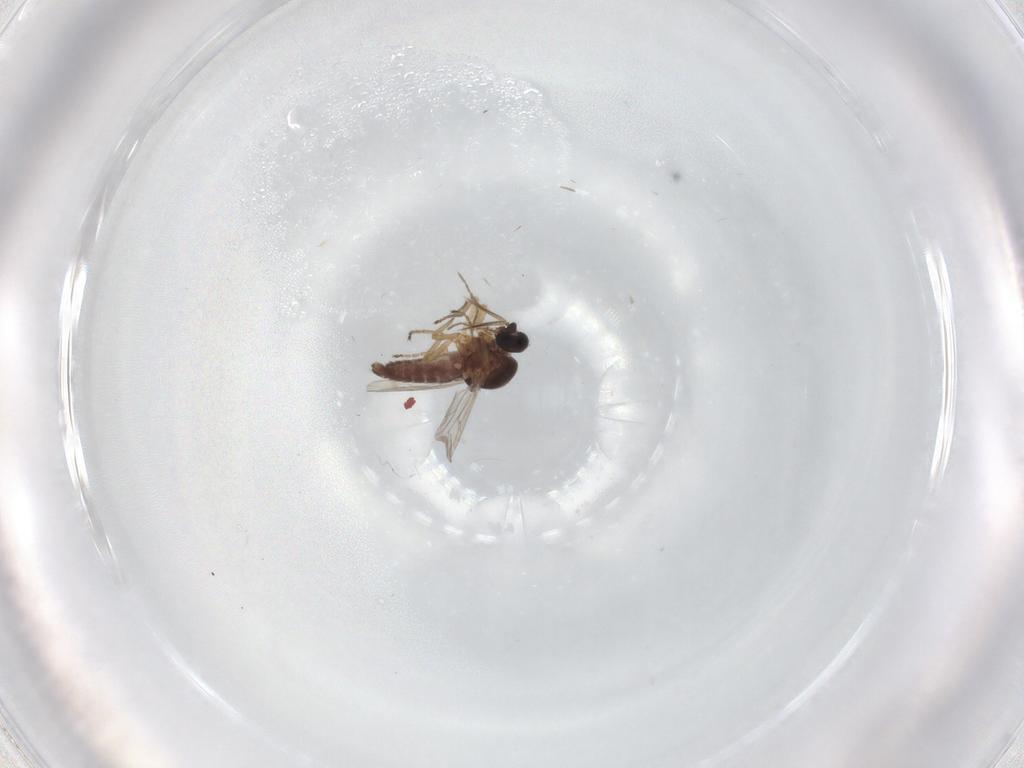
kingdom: Animalia
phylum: Arthropoda
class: Insecta
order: Diptera
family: Ceratopogonidae
